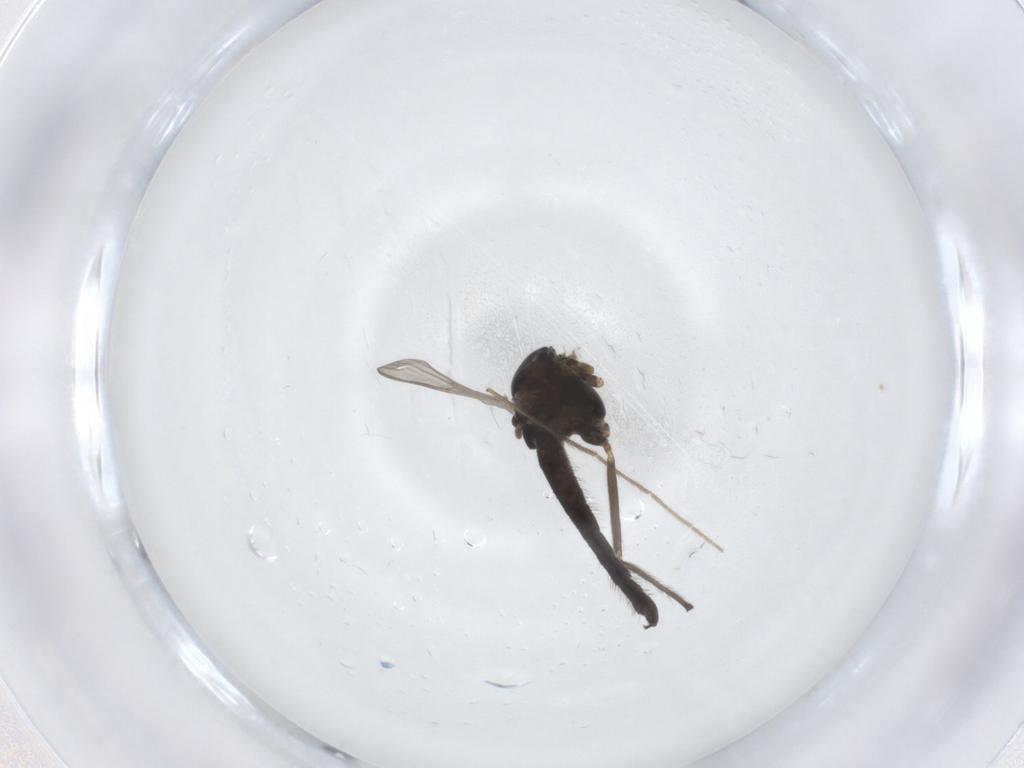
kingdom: Animalia
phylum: Arthropoda
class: Insecta
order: Diptera
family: Chironomidae
